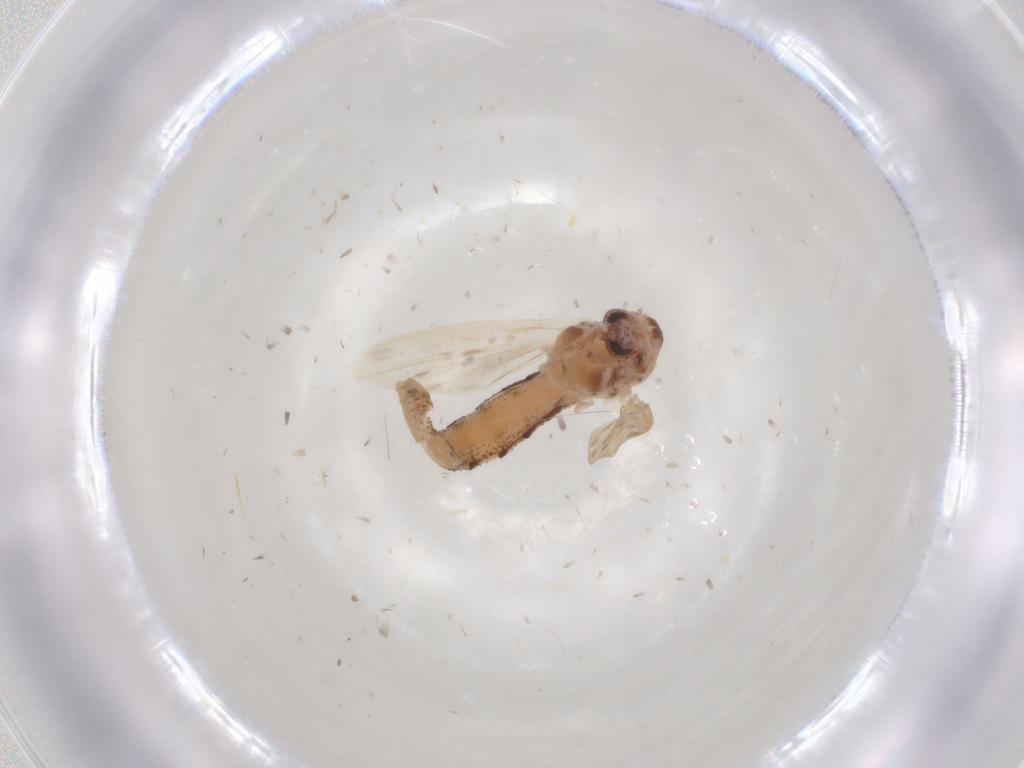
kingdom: Animalia
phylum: Arthropoda
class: Insecta
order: Diptera
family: Chaoboridae
